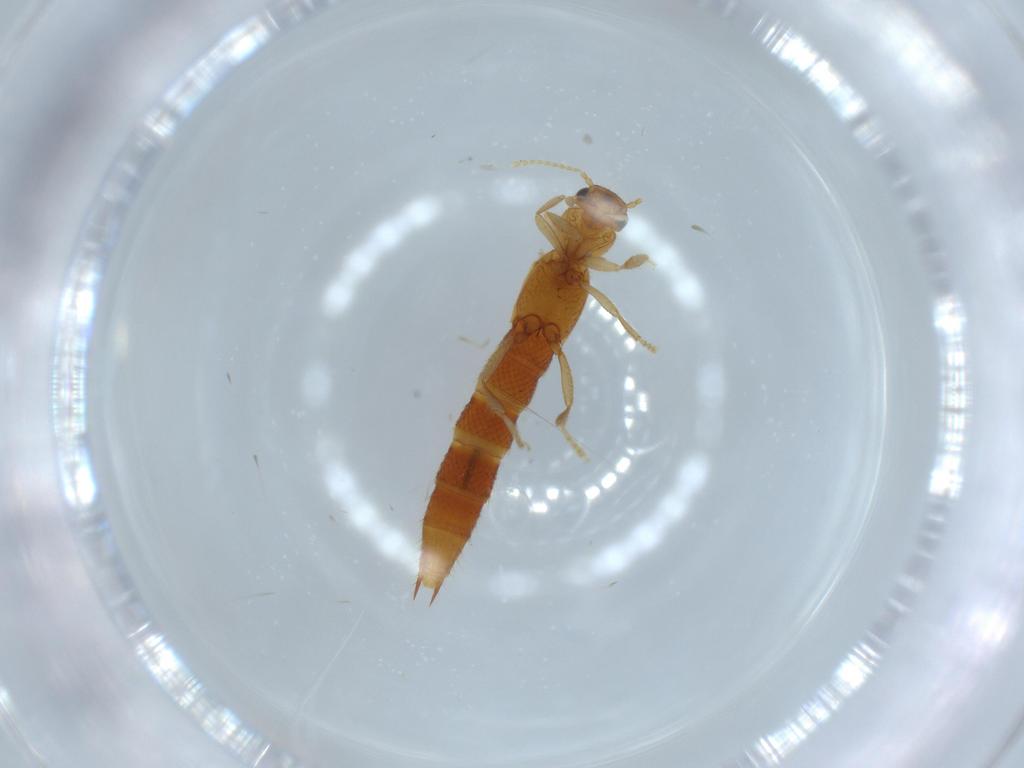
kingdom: Animalia
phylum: Arthropoda
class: Insecta
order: Coleoptera
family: Staphylinidae
